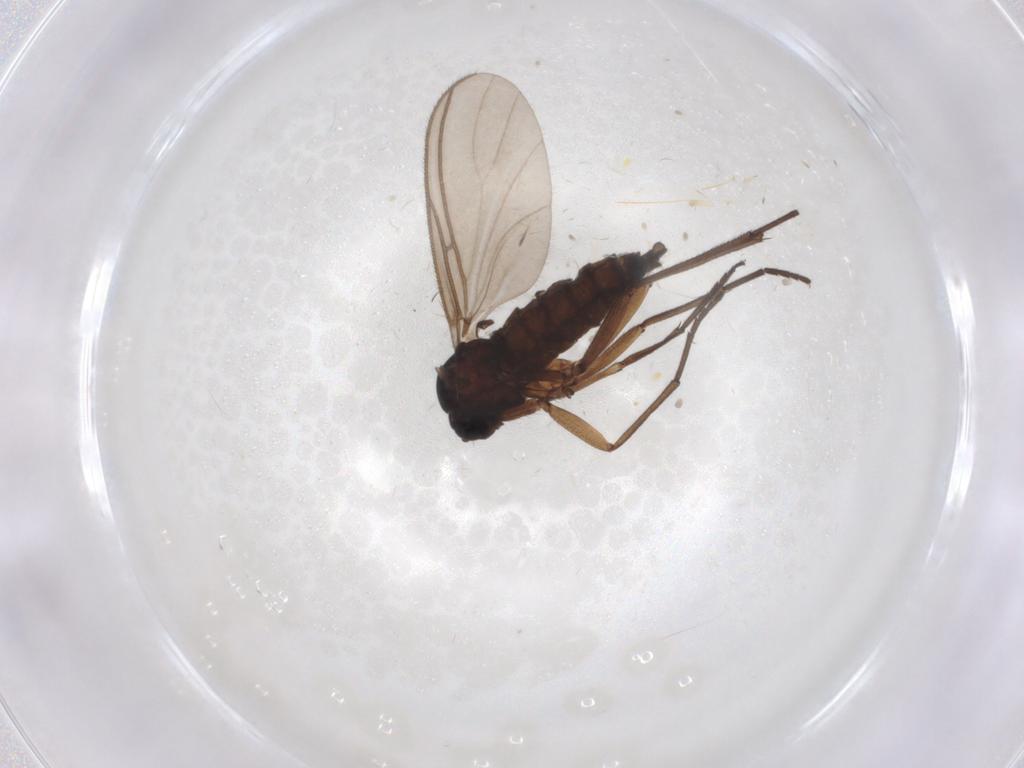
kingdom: Animalia
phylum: Arthropoda
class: Insecta
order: Diptera
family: Sciaridae
